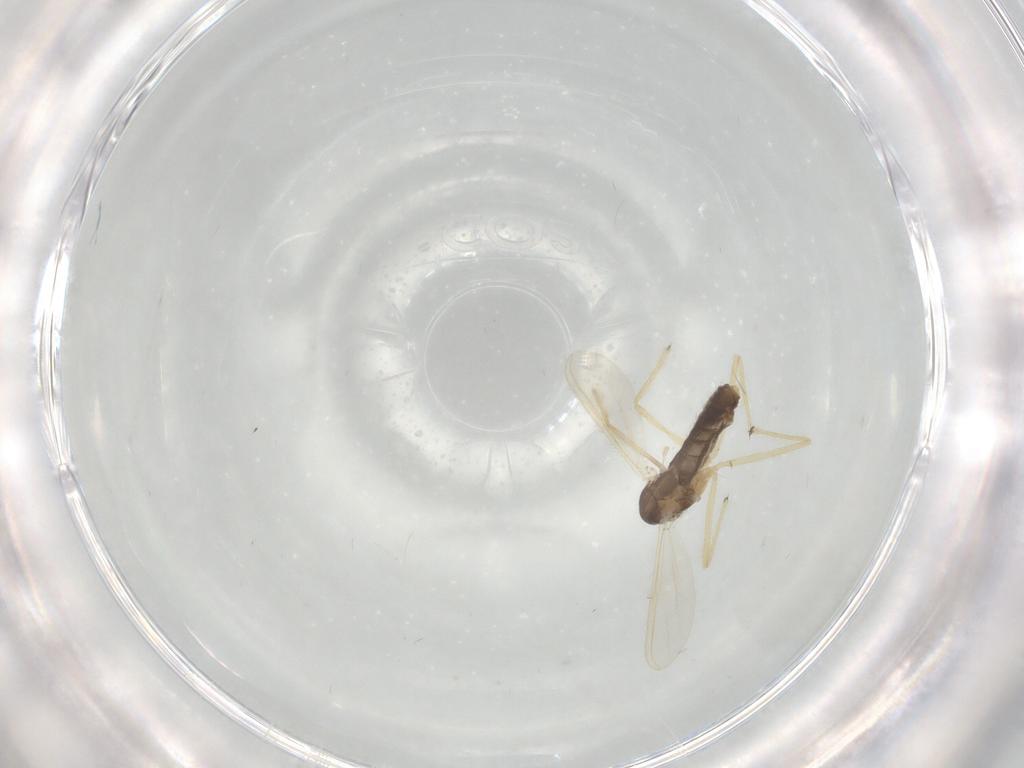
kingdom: Animalia
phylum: Arthropoda
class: Insecta
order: Diptera
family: Chironomidae
